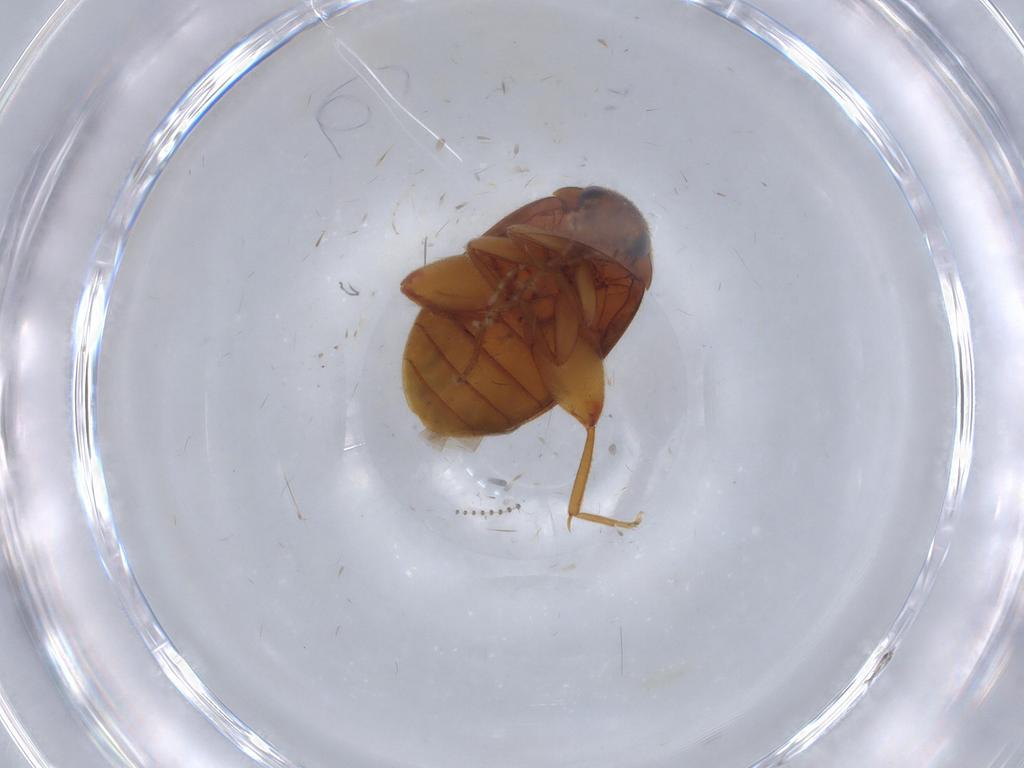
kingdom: Animalia
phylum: Arthropoda
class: Insecta
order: Coleoptera
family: Scirtidae
